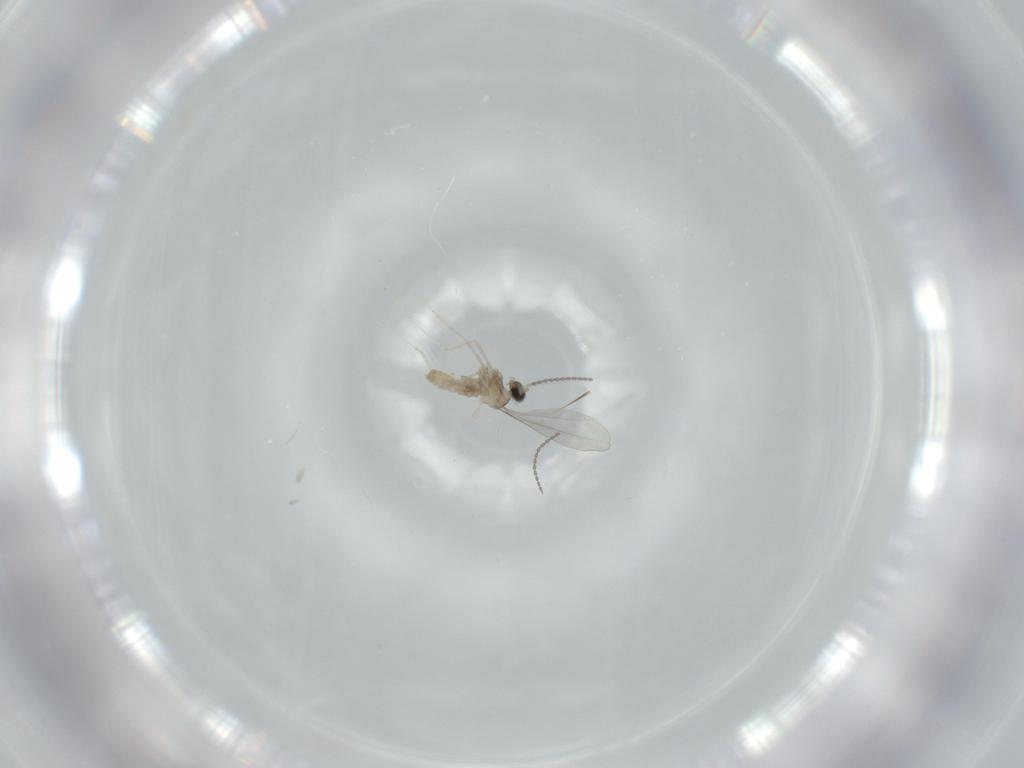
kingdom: Animalia
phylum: Arthropoda
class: Insecta
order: Diptera
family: Cecidomyiidae
